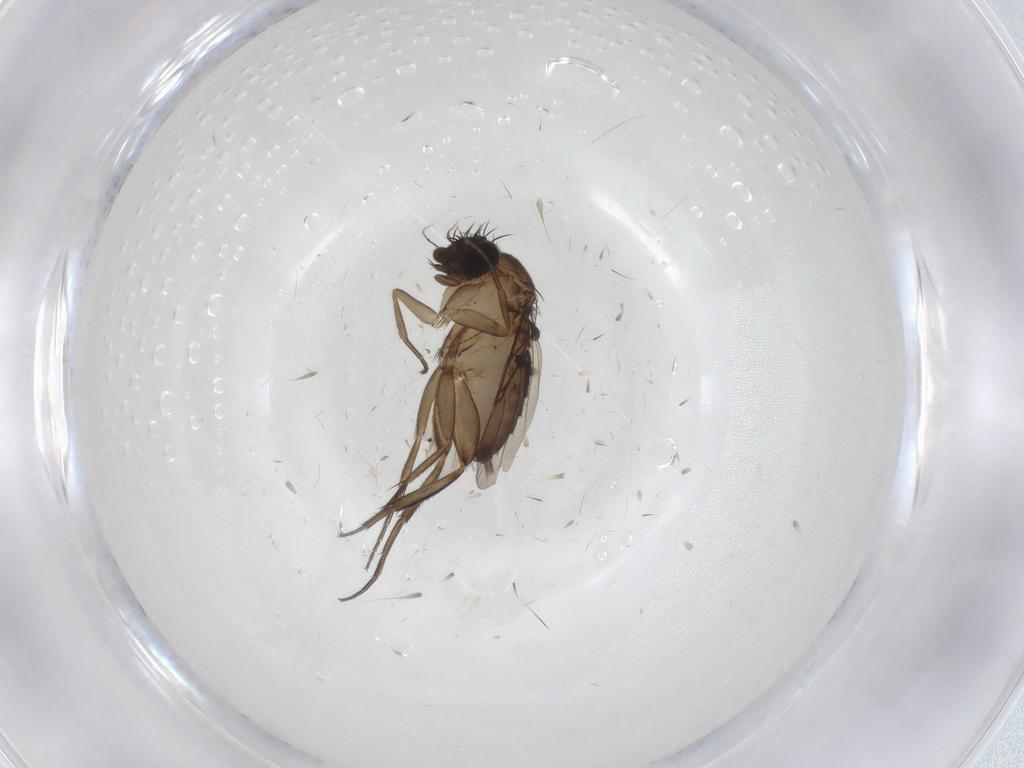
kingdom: Animalia
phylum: Arthropoda
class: Insecta
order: Diptera
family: Phoridae
